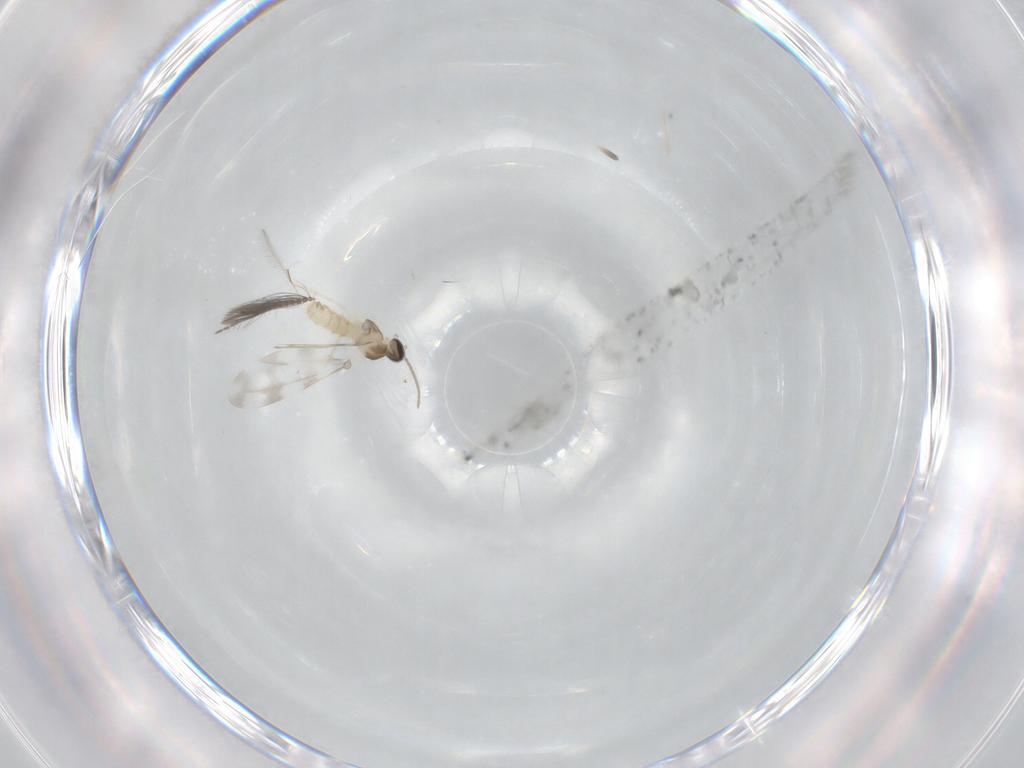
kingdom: Animalia
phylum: Arthropoda
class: Insecta
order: Diptera
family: Cecidomyiidae
